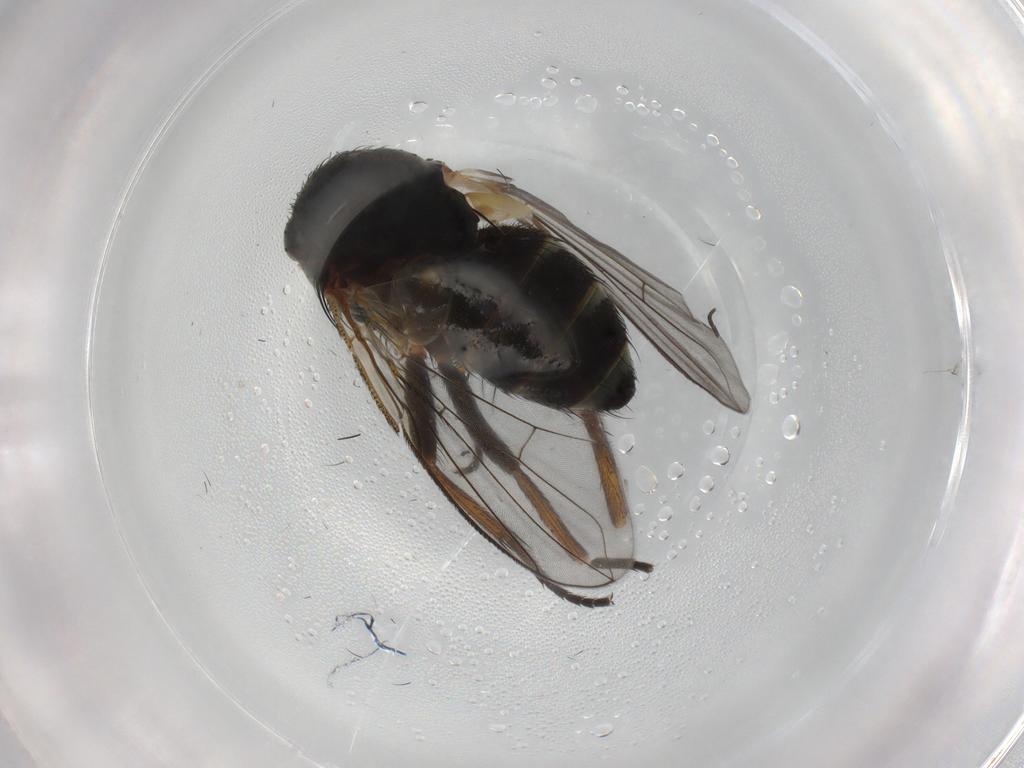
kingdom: Animalia
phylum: Arthropoda
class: Insecta
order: Diptera
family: Tachinidae
